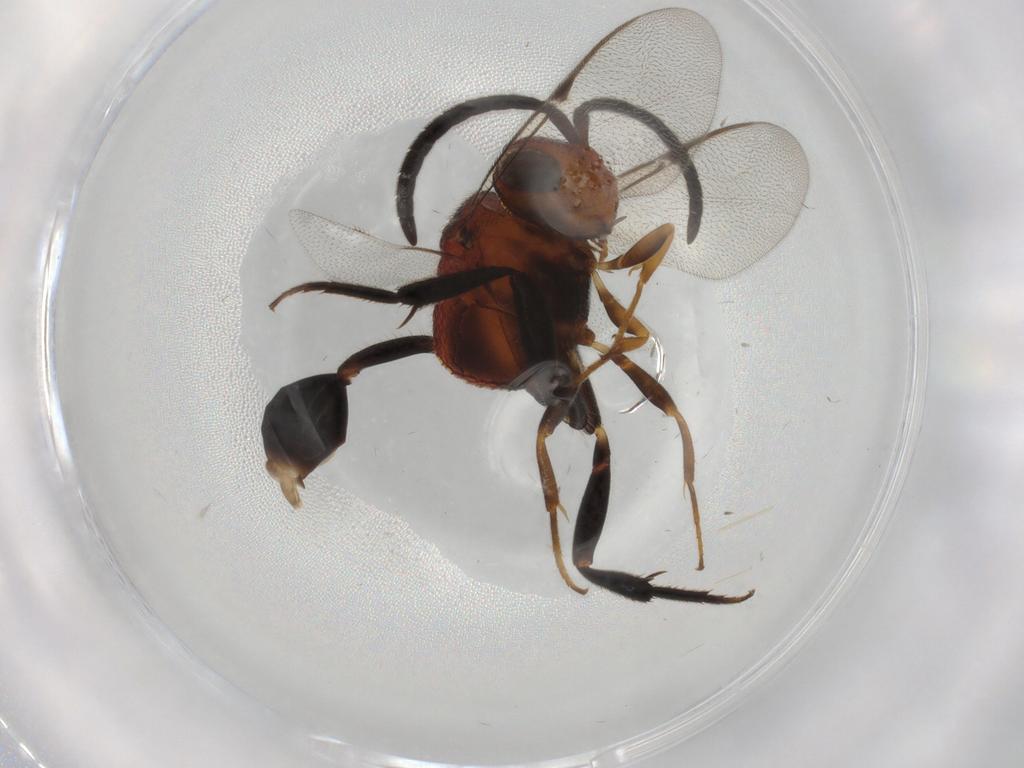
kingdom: Animalia
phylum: Arthropoda
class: Insecta
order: Hymenoptera
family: Evaniidae
